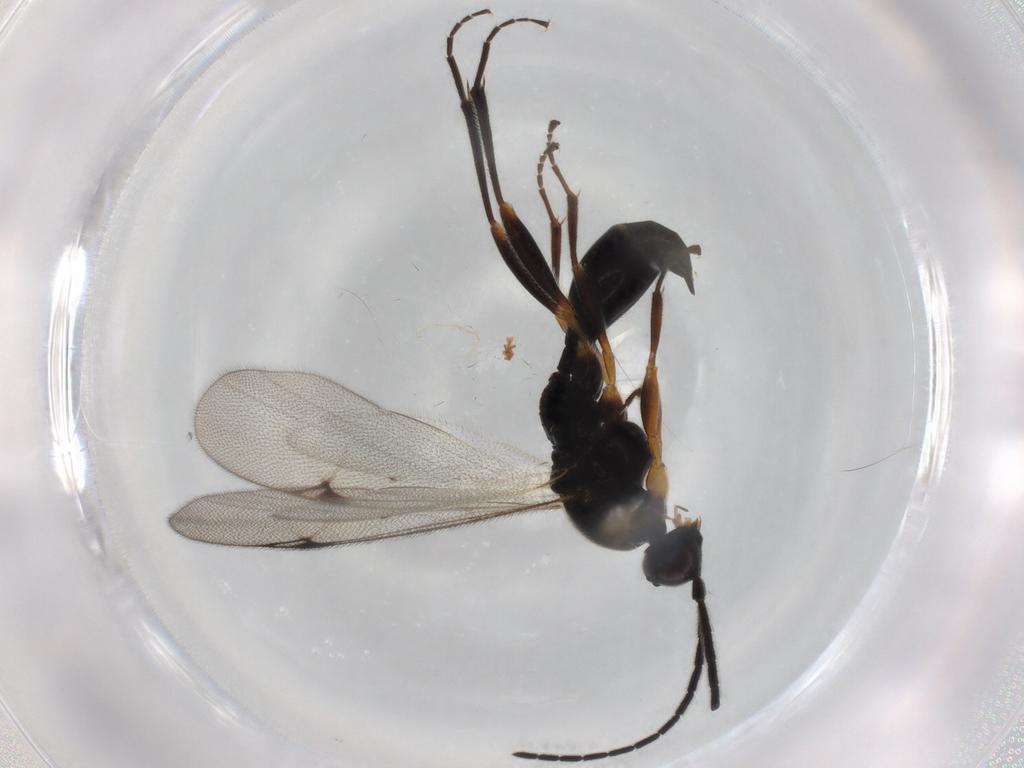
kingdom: Animalia
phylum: Arthropoda
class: Insecta
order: Hymenoptera
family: Proctotrupidae
